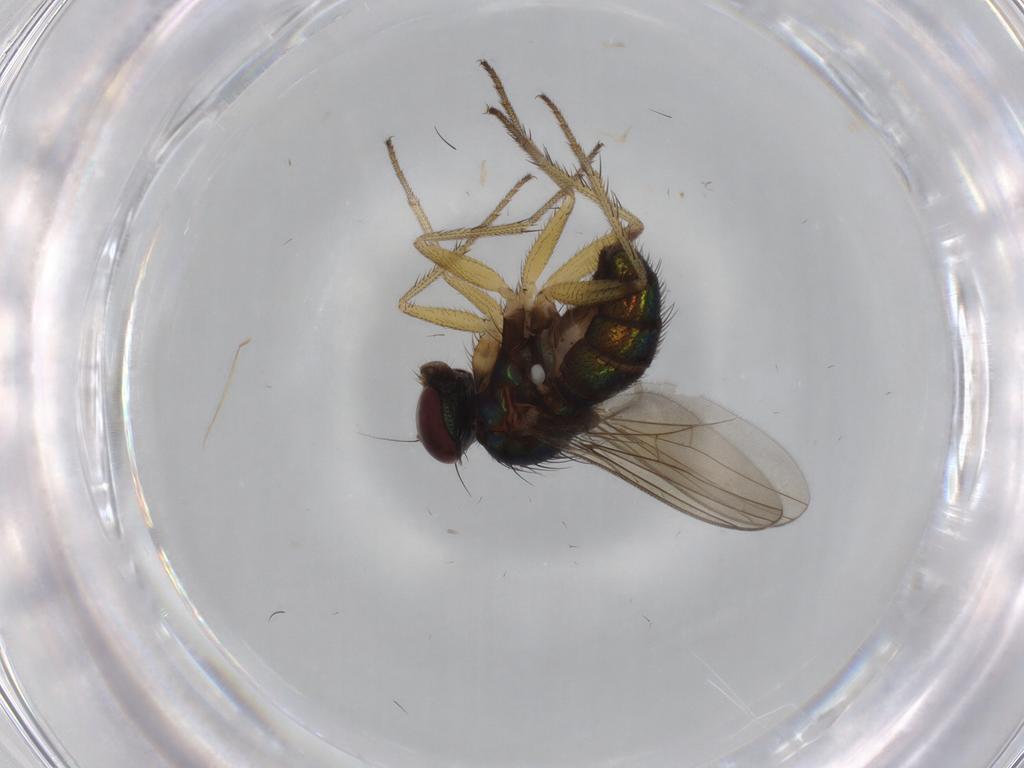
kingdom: Animalia
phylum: Arthropoda
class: Insecta
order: Diptera
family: Dolichopodidae
